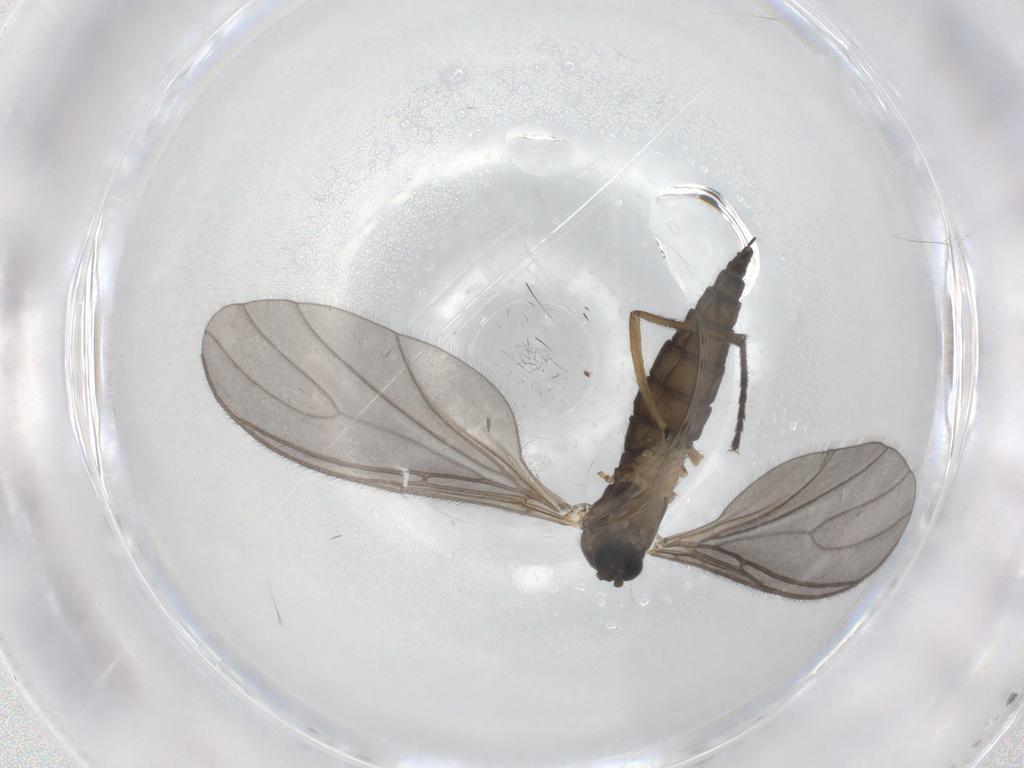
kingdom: Animalia
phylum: Arthropoda
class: Insecta
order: Diptera
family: Sciaridae
